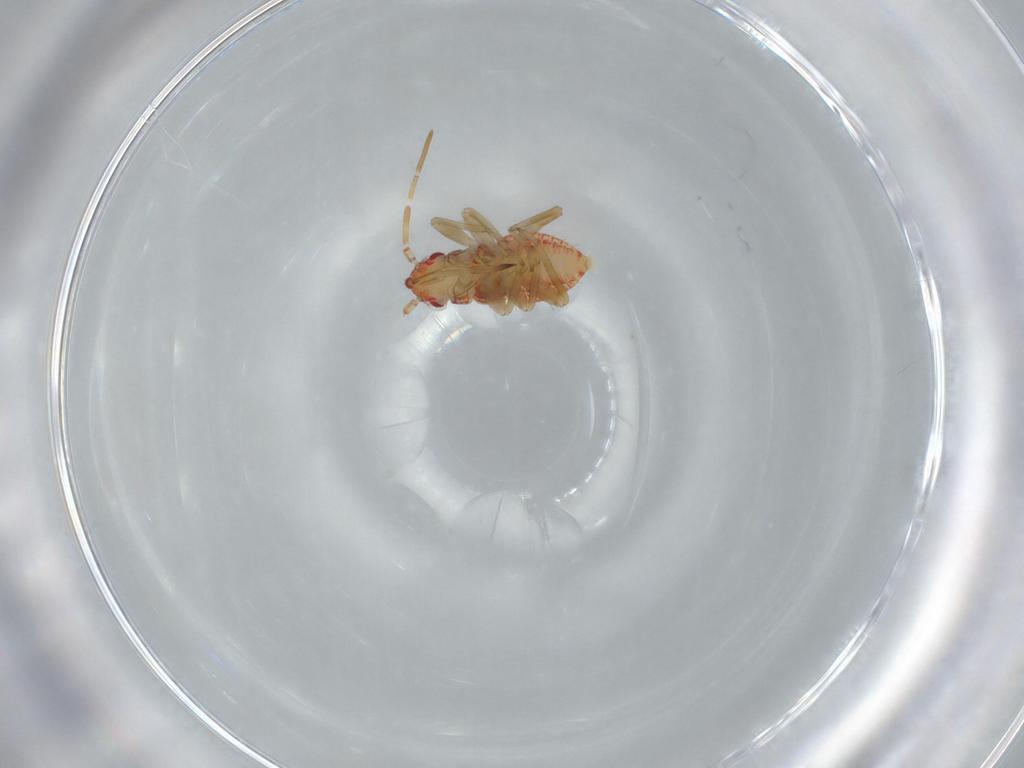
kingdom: Animalia
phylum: Arthropoda
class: Insecta
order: Hemiptera
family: Miridae
